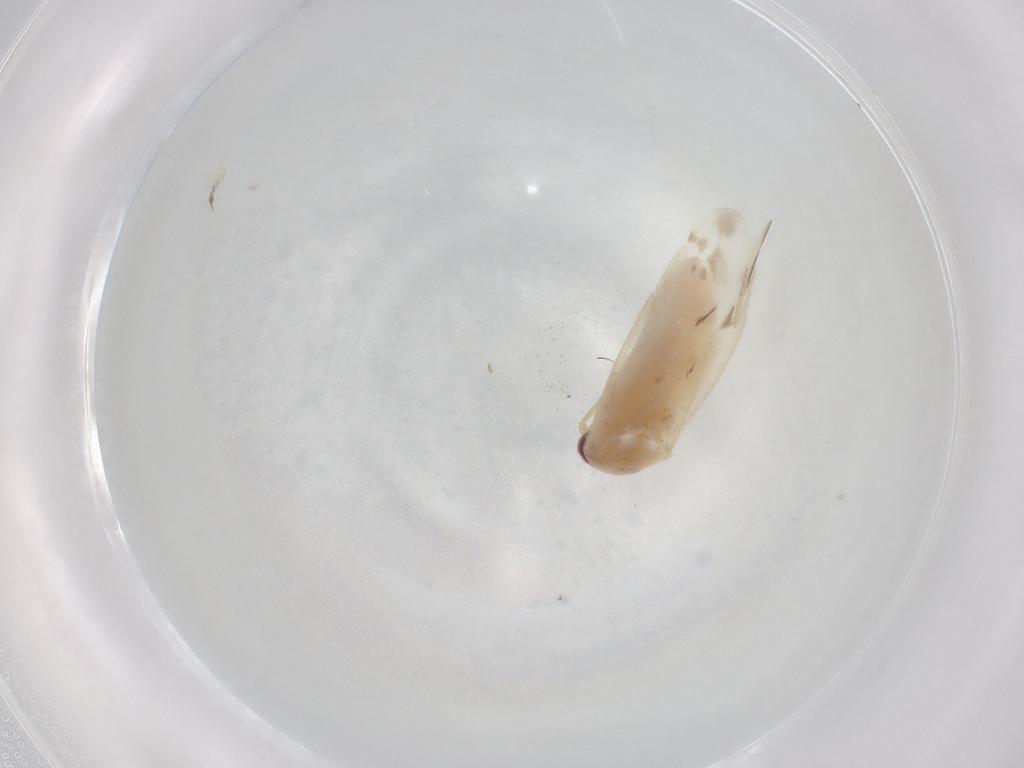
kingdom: Animalia
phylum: Arthropoda
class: Insecta
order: Hemiptera
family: Miridae
